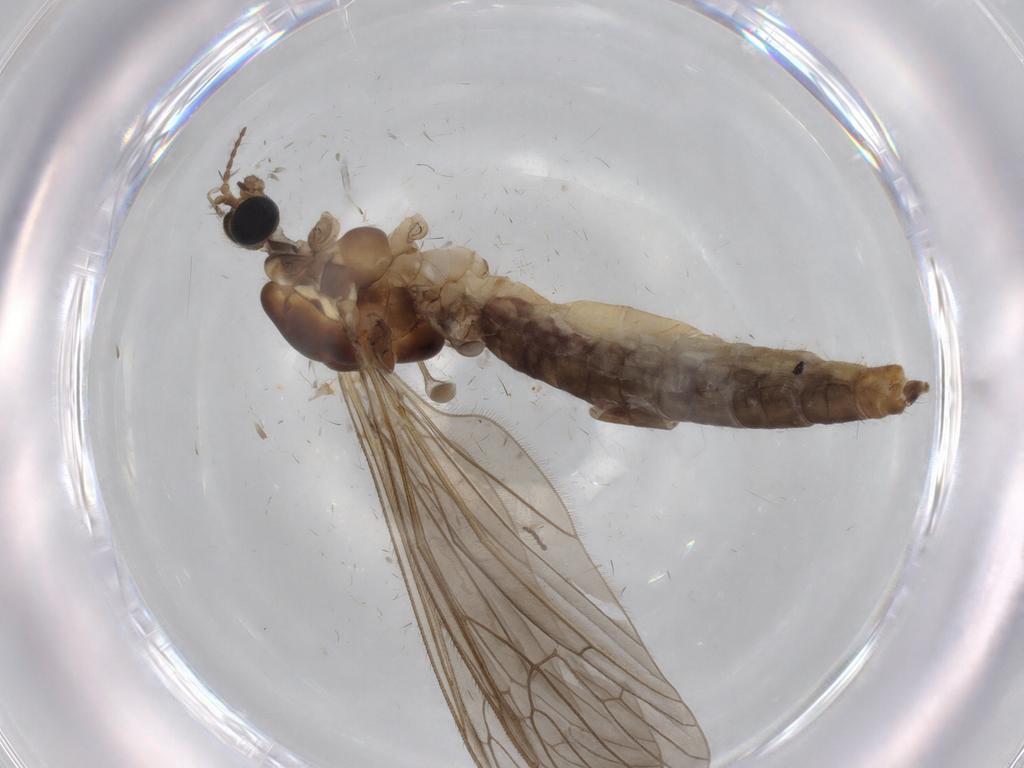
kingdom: Animalia
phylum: Arthropoda
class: Insecta
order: Diptera
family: Limoniidae
